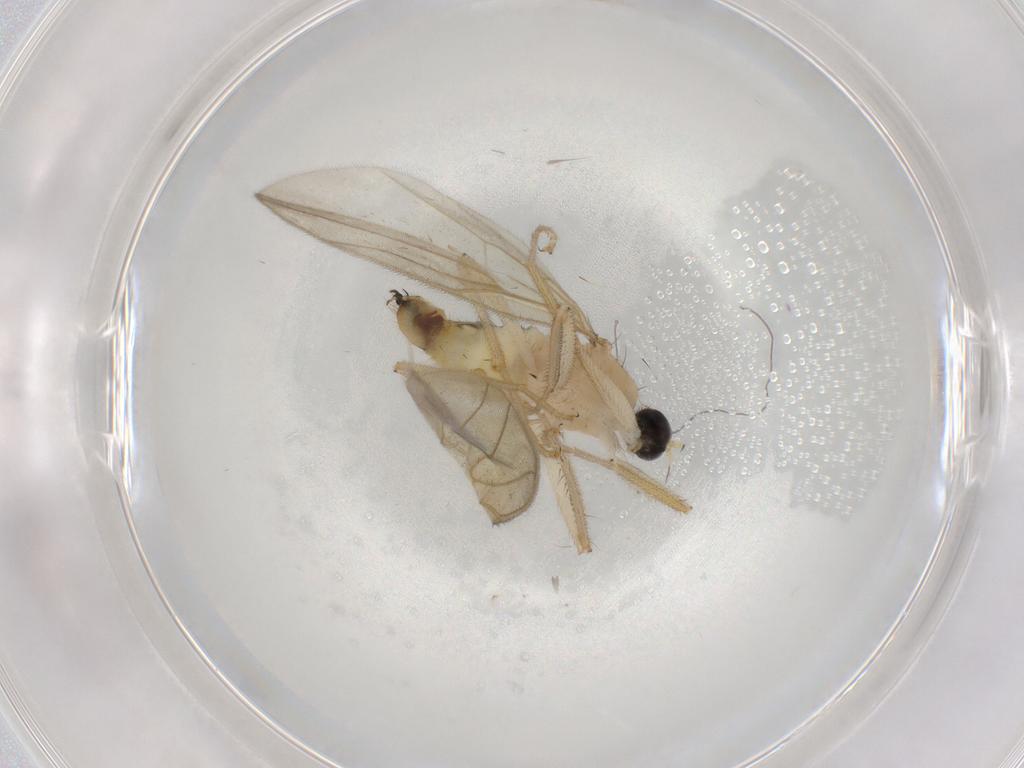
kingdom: Animalia
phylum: Arthropoda
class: Insecta
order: Diptera
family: Hybotidae
